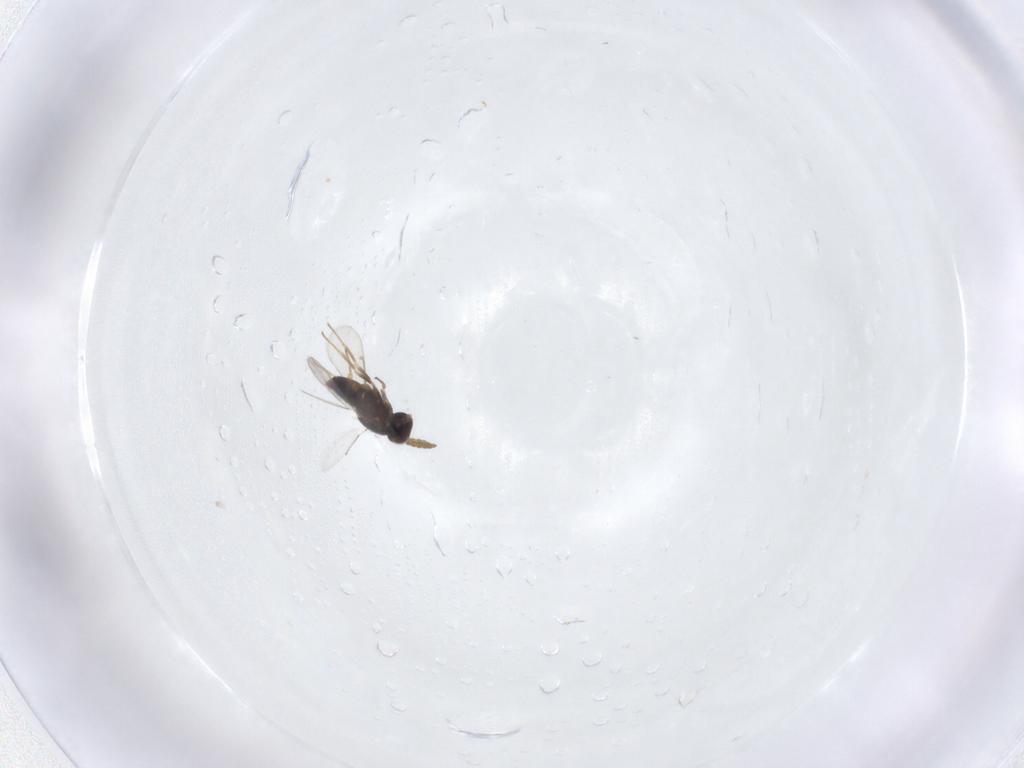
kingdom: Animalia
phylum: Arthropoda
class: Insecta
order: Hymenoptera
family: Aphelinidae
